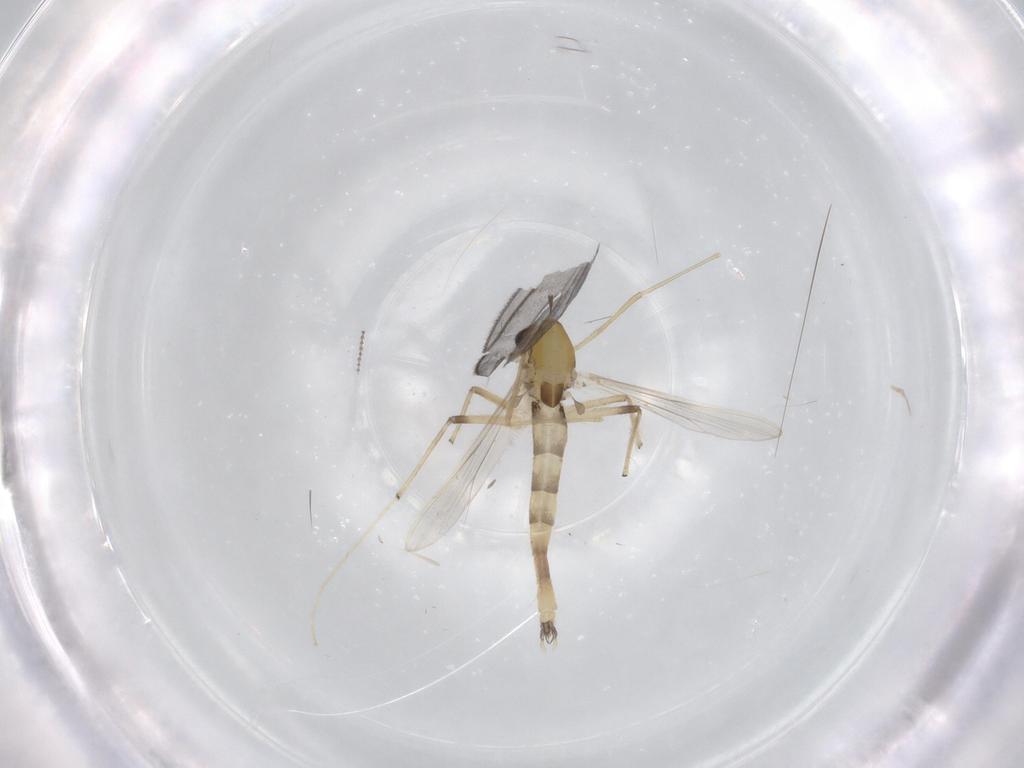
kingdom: Animalia
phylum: Arthropoda
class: Insecta
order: Diptera
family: Chironomidae
